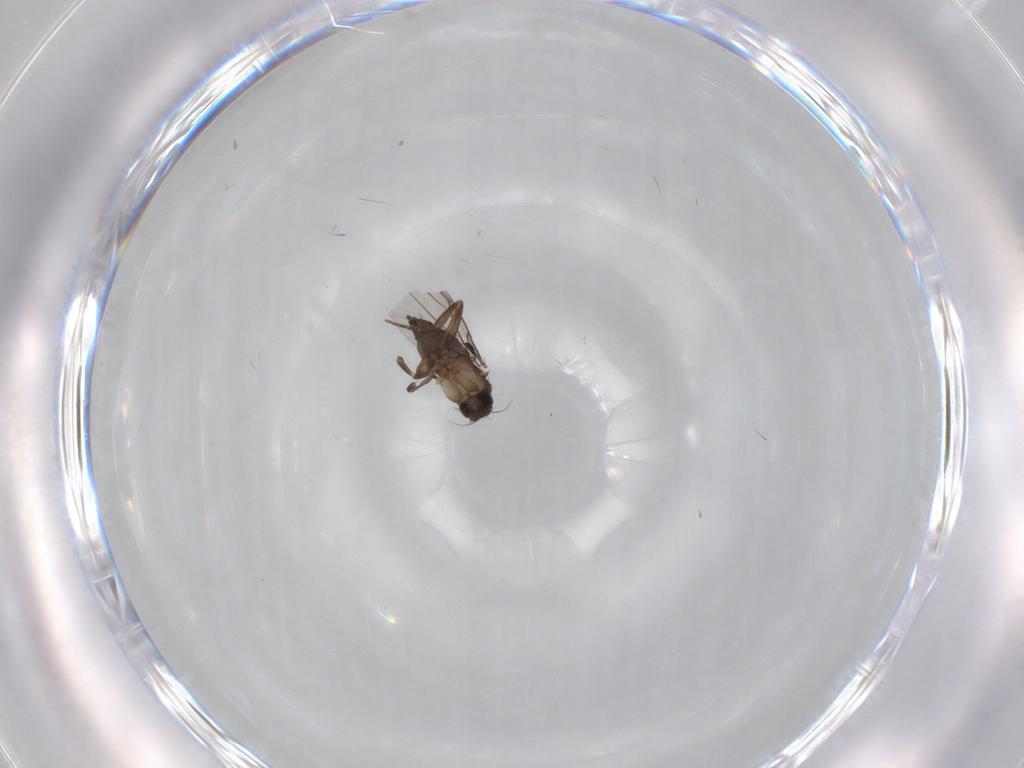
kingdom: Animalia
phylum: Arthropoda
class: Insecta
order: Diptera
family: Phoridae
